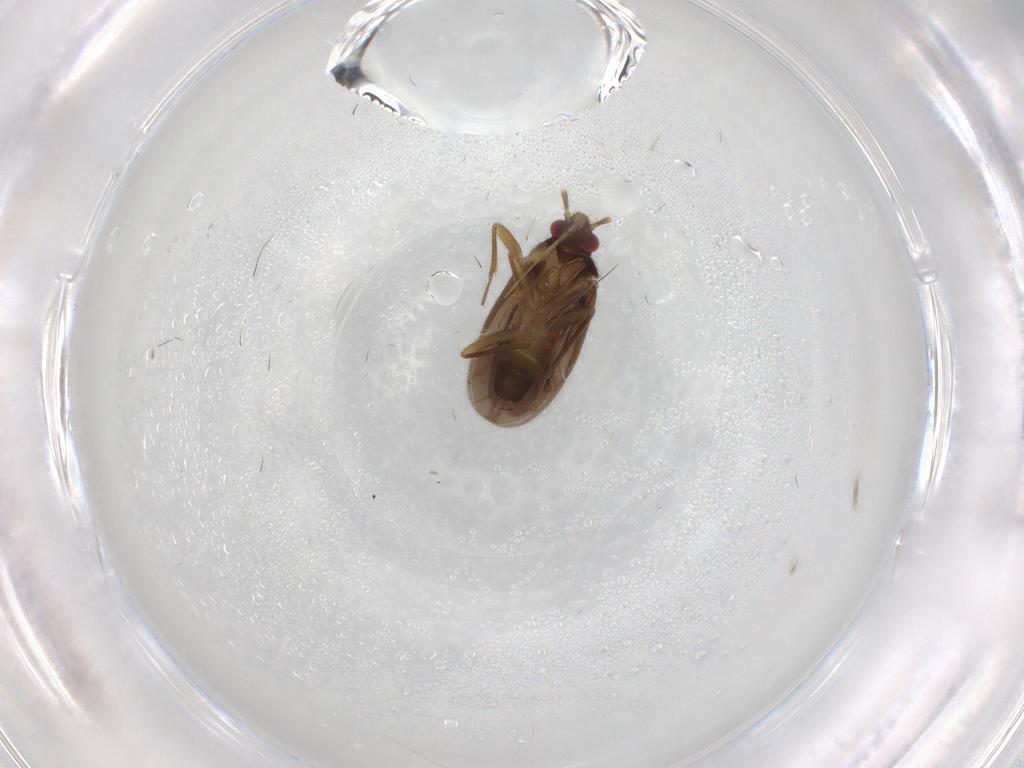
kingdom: Animalia
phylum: Arthropoda
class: Insecta
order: Hemiptera
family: Ceratocombidae
